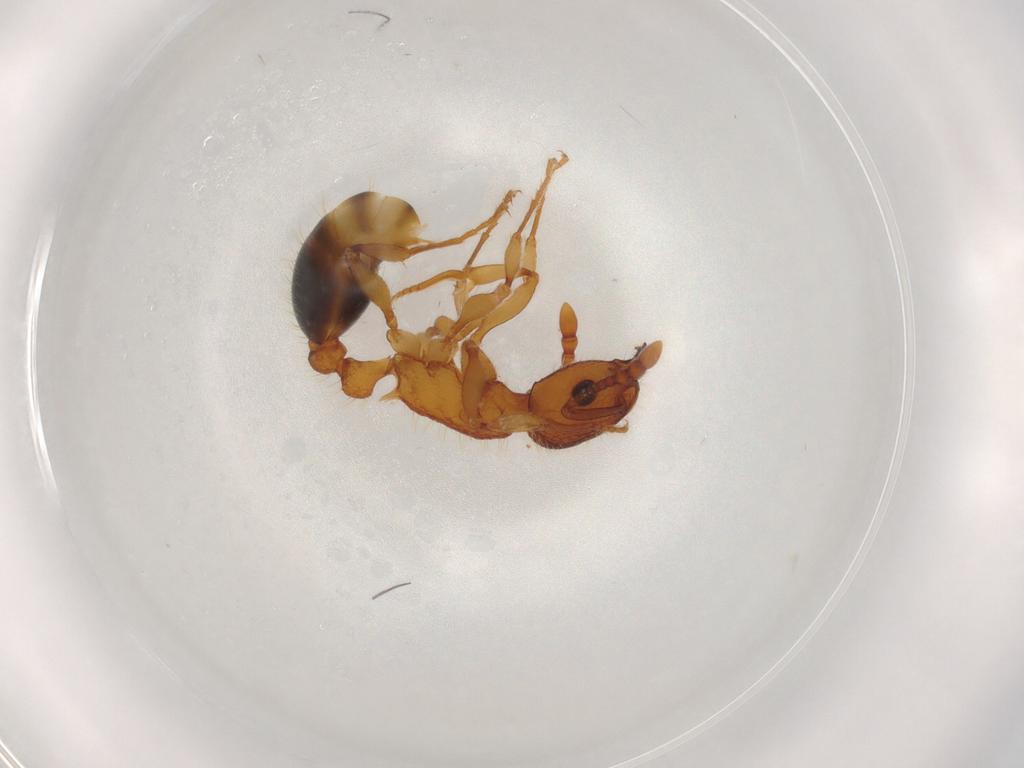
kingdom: Animalia
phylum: Arthropoda
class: Insecta
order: Hymenoptera
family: Formicidae
